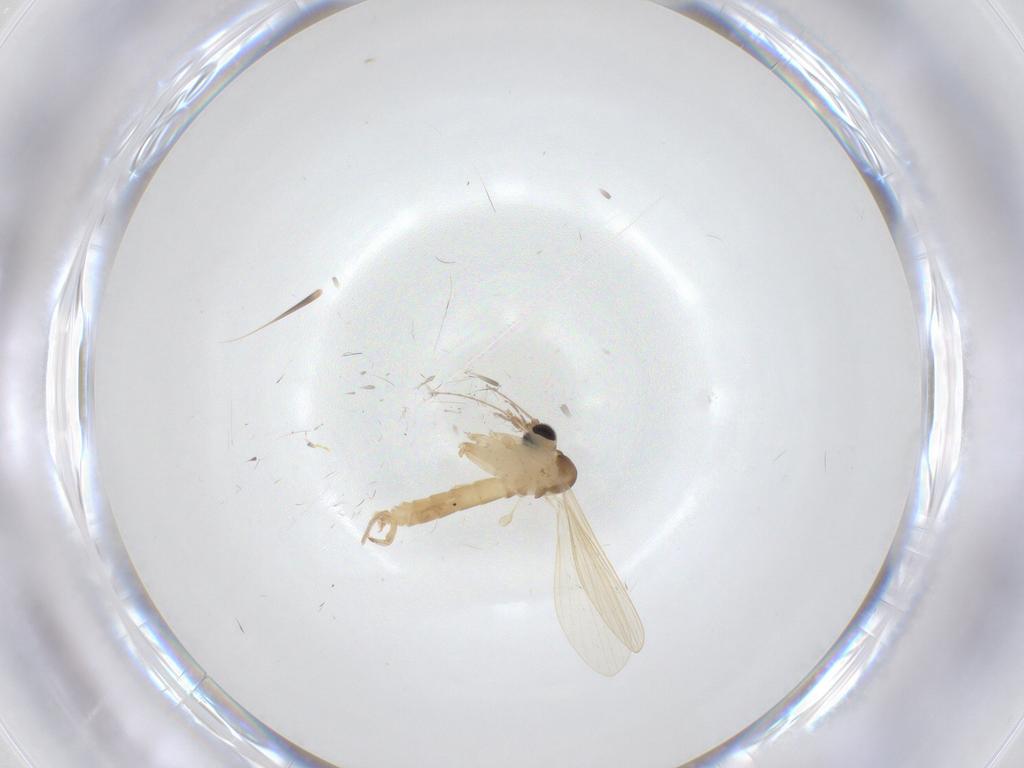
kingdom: Animalia
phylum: Arthropoda
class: Insecta
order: Diptera
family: Psychodidae
